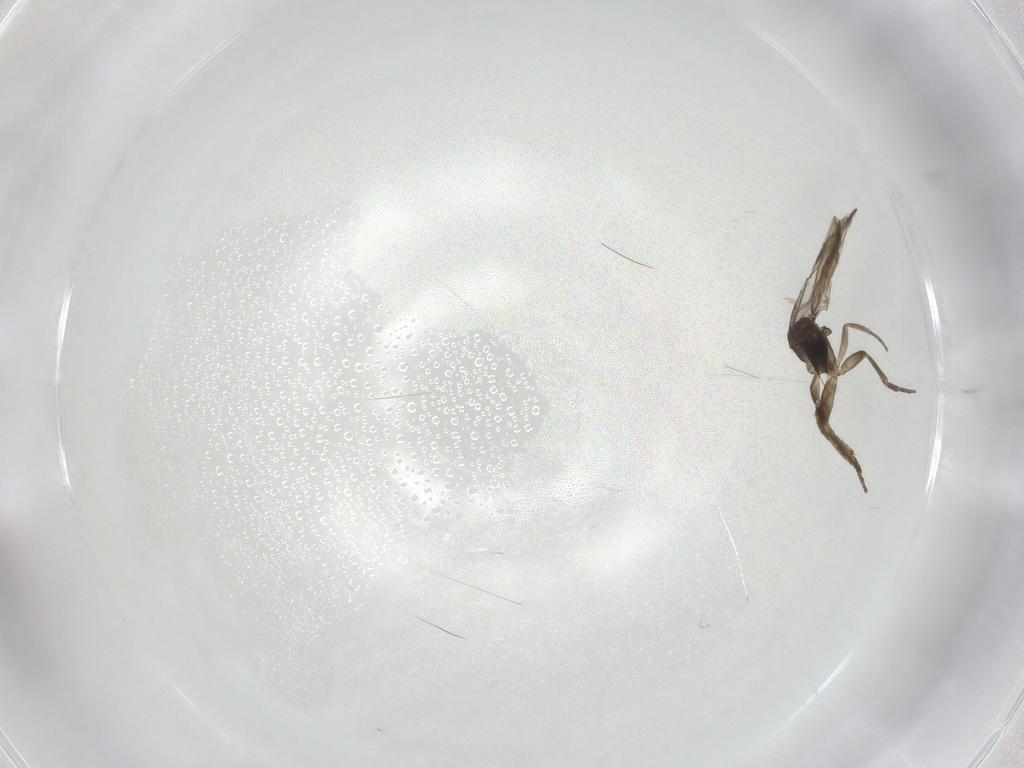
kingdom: Animalia
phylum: Arthropoda
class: Insecta
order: Diptera
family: Phoridae
